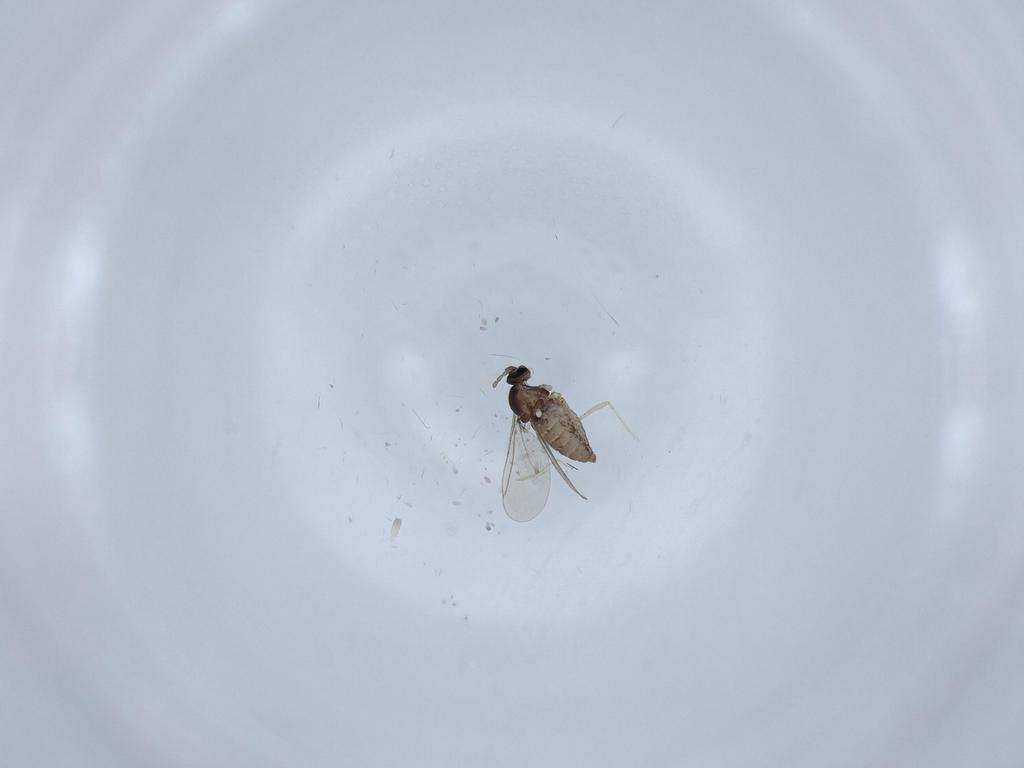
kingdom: Animalia
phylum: Arthropoda
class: Insecta
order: Diptera
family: Cecidomyiidae
